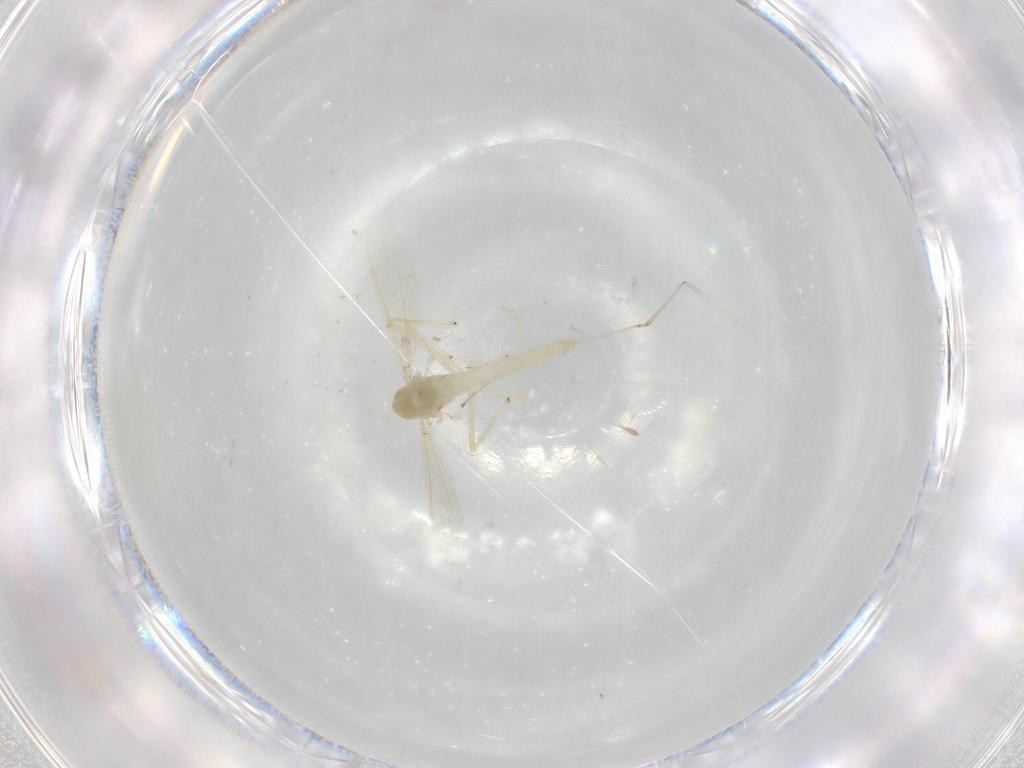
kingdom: Animalia
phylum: Arthropoda
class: Insecta
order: Diptera
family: Chironomidae
